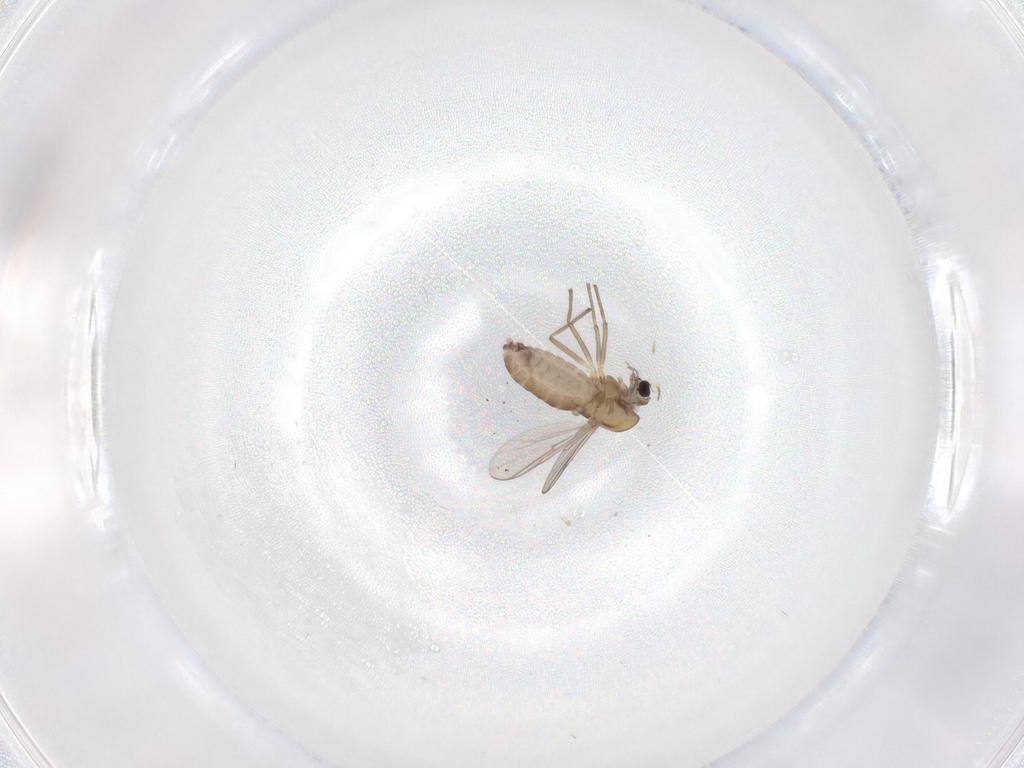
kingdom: Animalia
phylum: Arthropoda
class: Insecta
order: Diptera
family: Chironomidae
